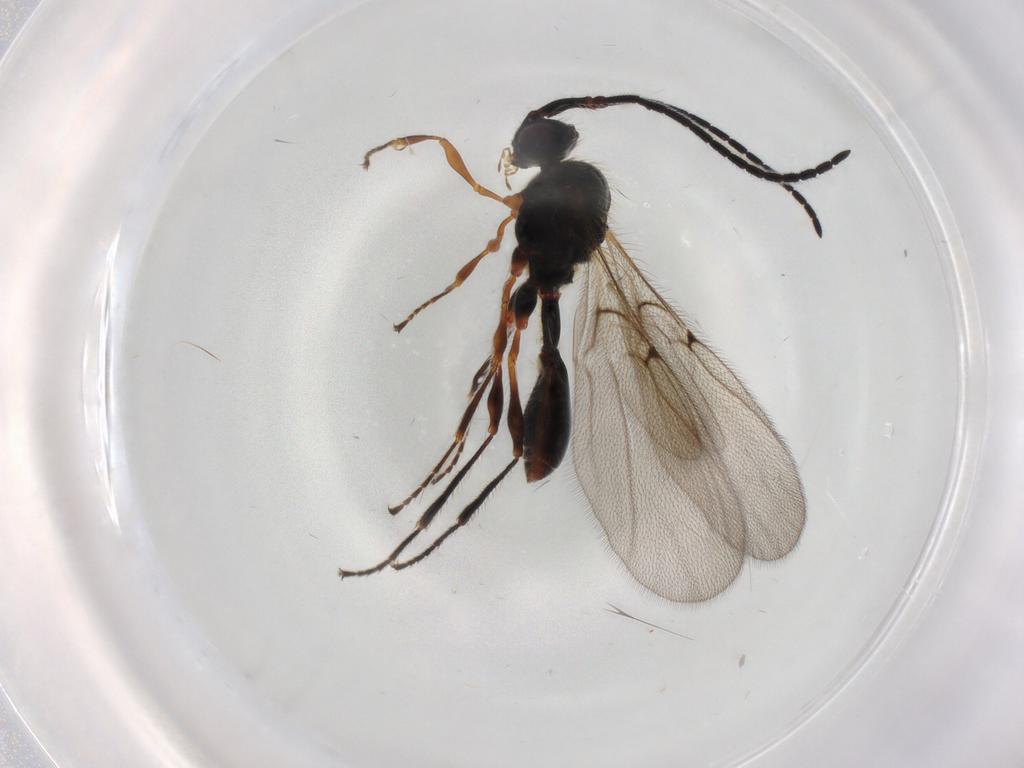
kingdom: Animalia
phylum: Arthropoda
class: Insecta
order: Hymenoptera
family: Diapriidae
